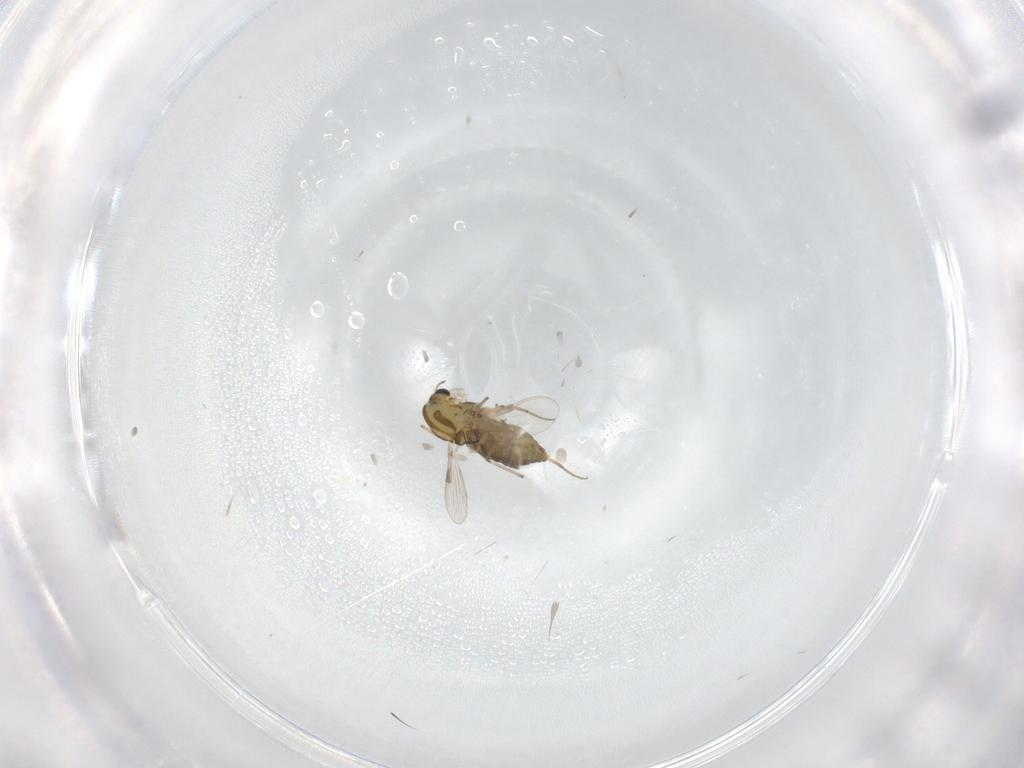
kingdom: Animalia
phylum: Arthropoda
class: Insecta
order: Diptera
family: Chironomidae
